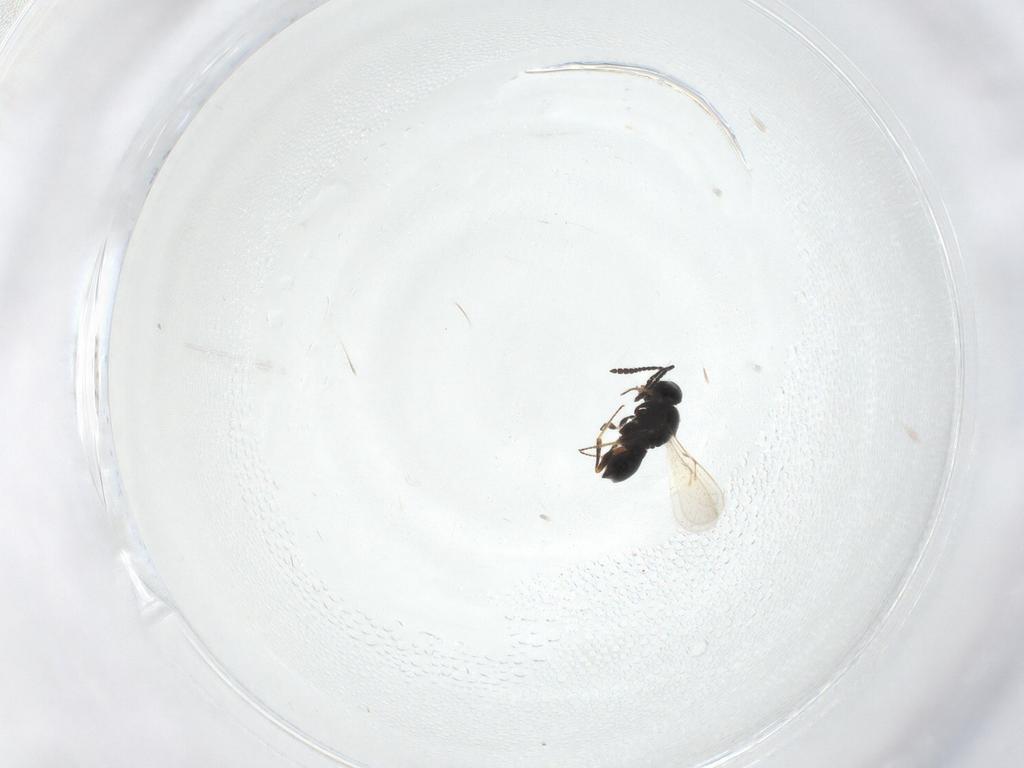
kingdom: Animalia
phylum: Arthropoda
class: Insecta
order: Hymenoptera
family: Scelionidae
